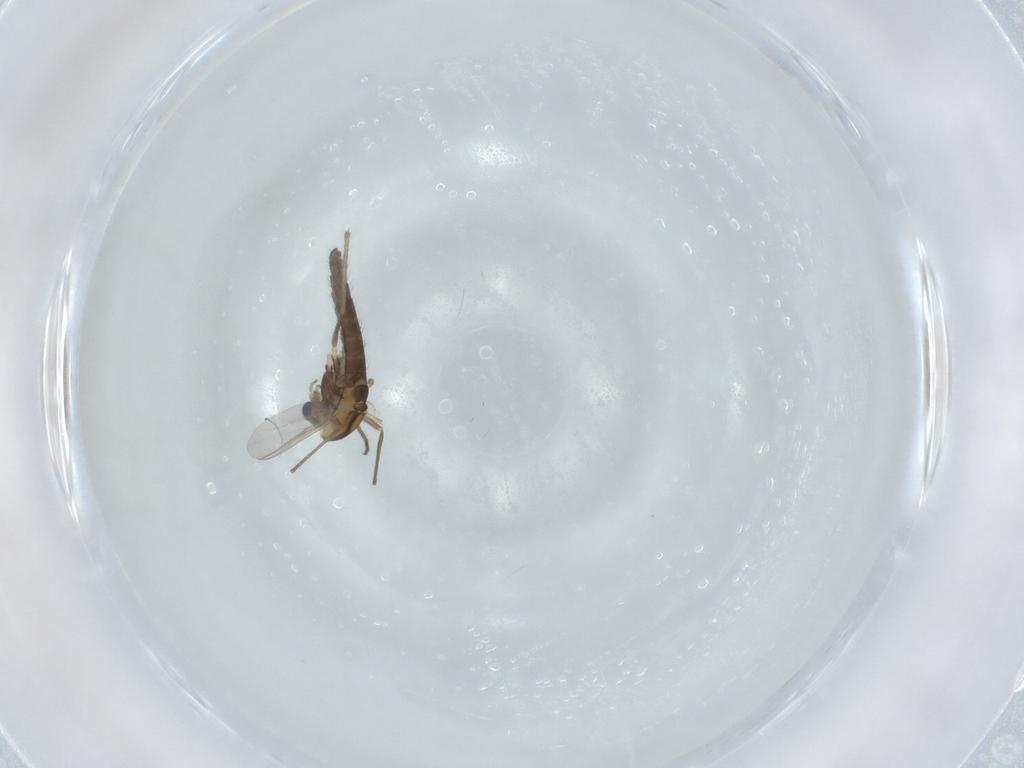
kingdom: Animalia
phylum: Arthropoda
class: Insecta
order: Diptera
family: Chironomidae
